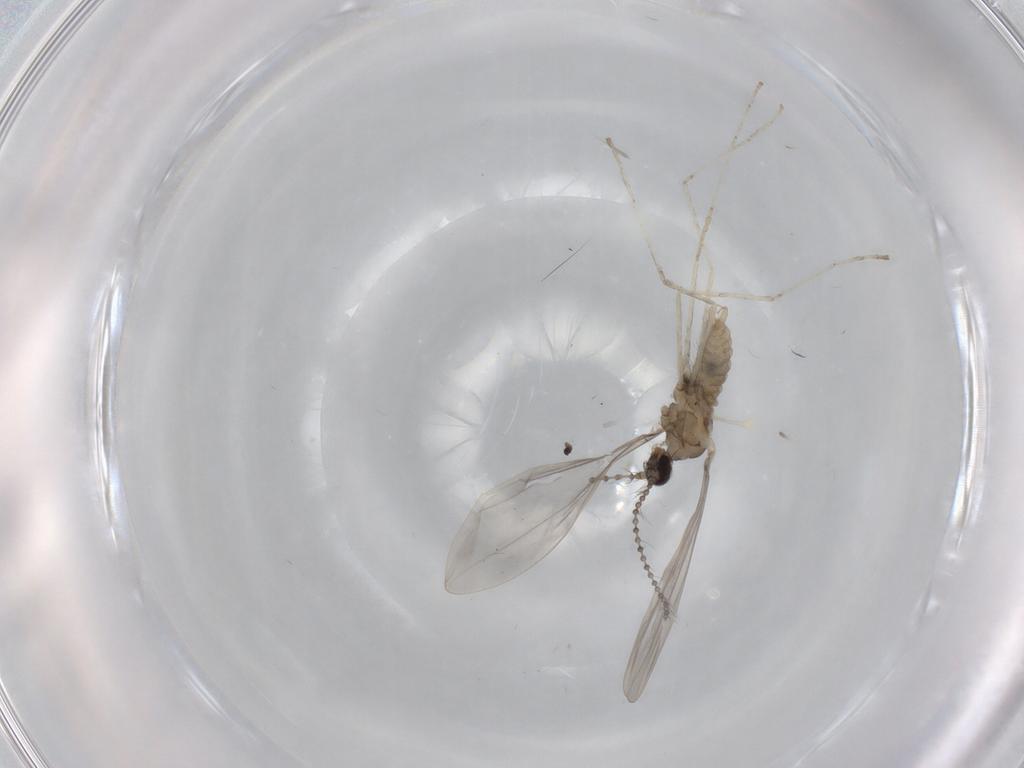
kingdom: Animalia
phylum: Arthropoda
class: Insecta
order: Diptera
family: Cecidomyiidae
